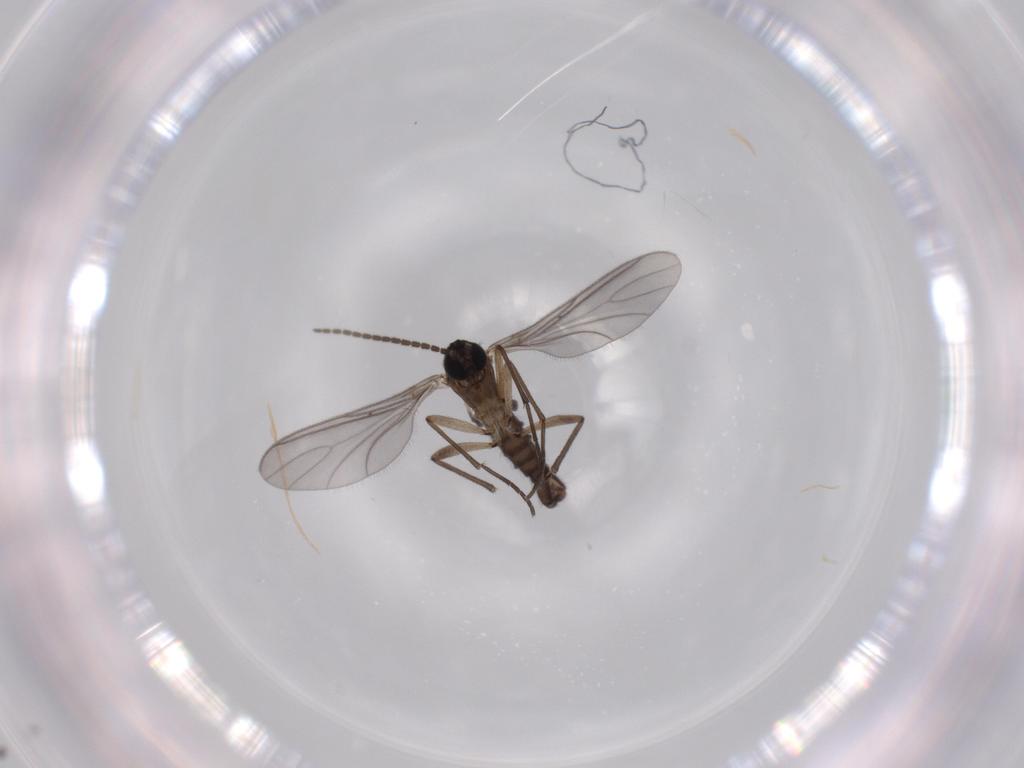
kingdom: Animalia
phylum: Arthropoda
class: Insecta
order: Diptera
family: Sciaridae
